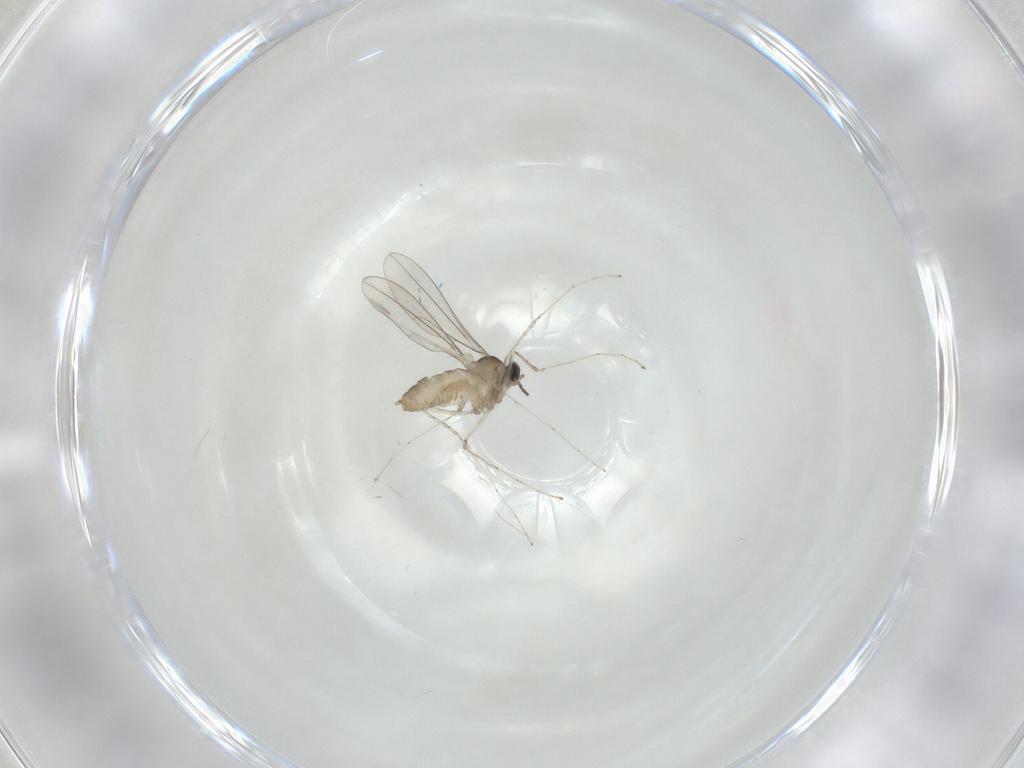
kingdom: Animalia
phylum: Arthropoda
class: Insecta
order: Diptera
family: Cecidomyiidae
